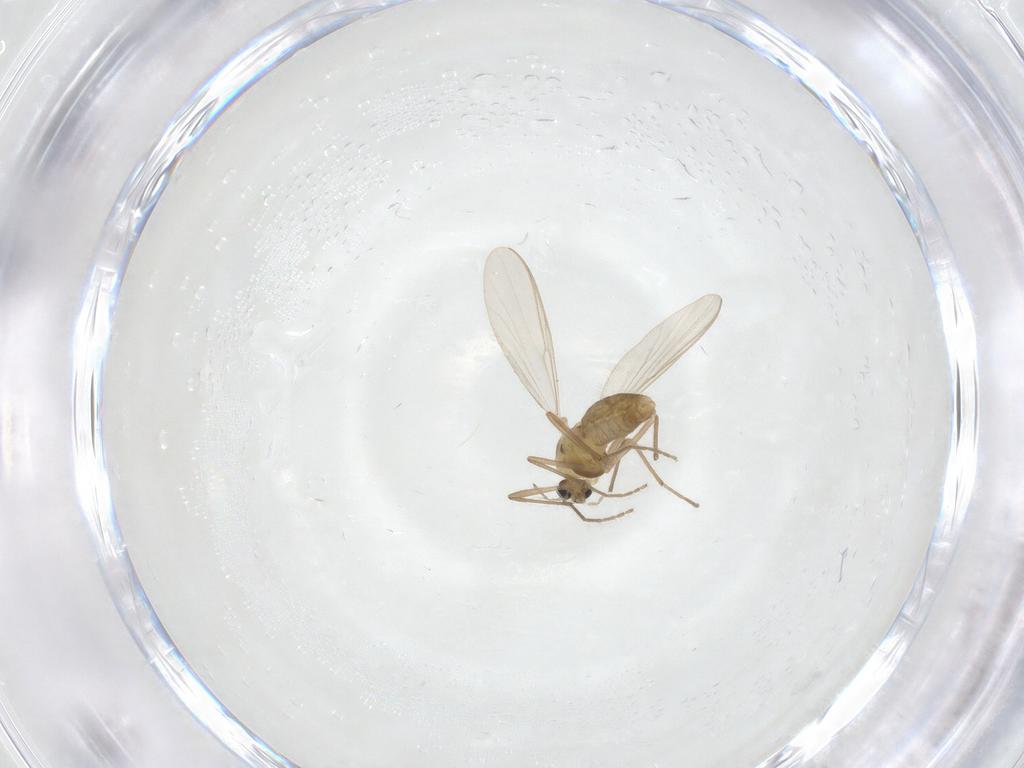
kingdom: Animalia
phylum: Arthropoda
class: Insecta
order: Diptera
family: Chironomidae
